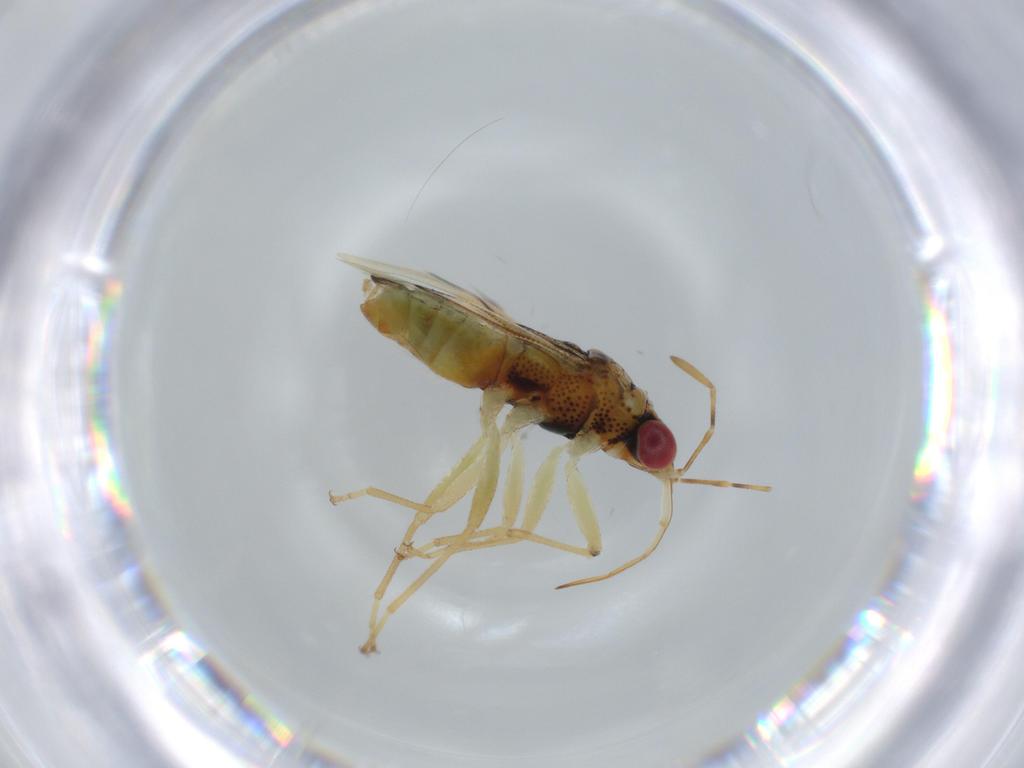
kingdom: Animalia
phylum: Arthropoda
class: Insecta
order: Hemiptera
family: Geocoridae
